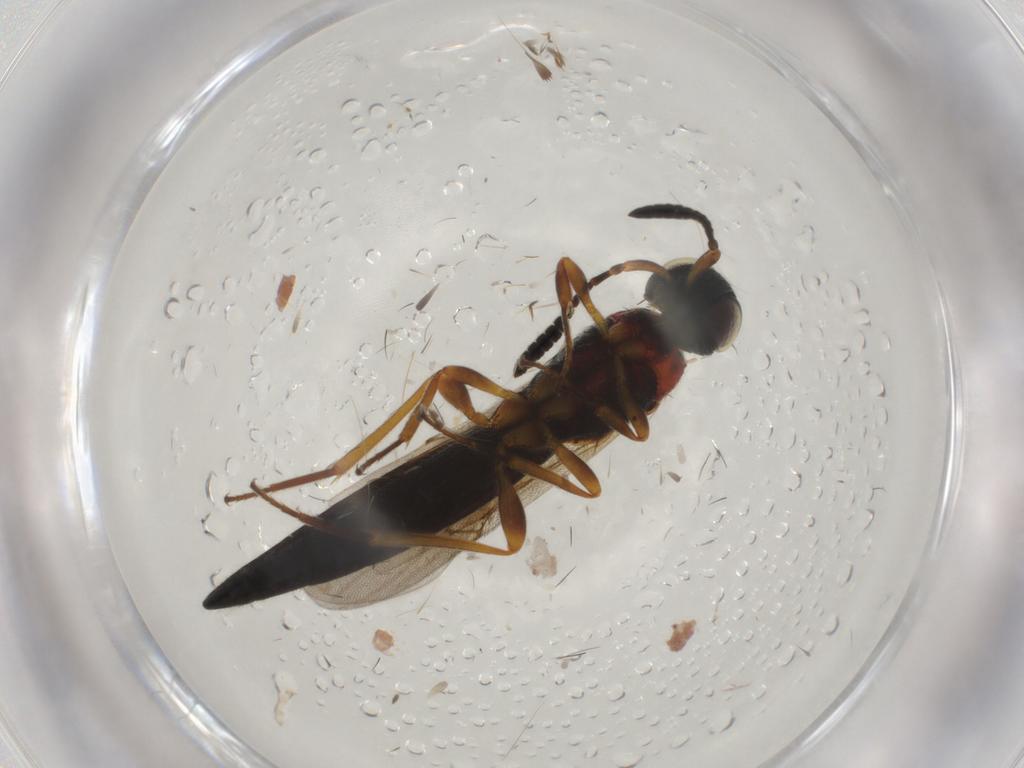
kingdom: Animalia
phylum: Arthropoda
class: Insecta
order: Hymenoptera
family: Scelionidae
